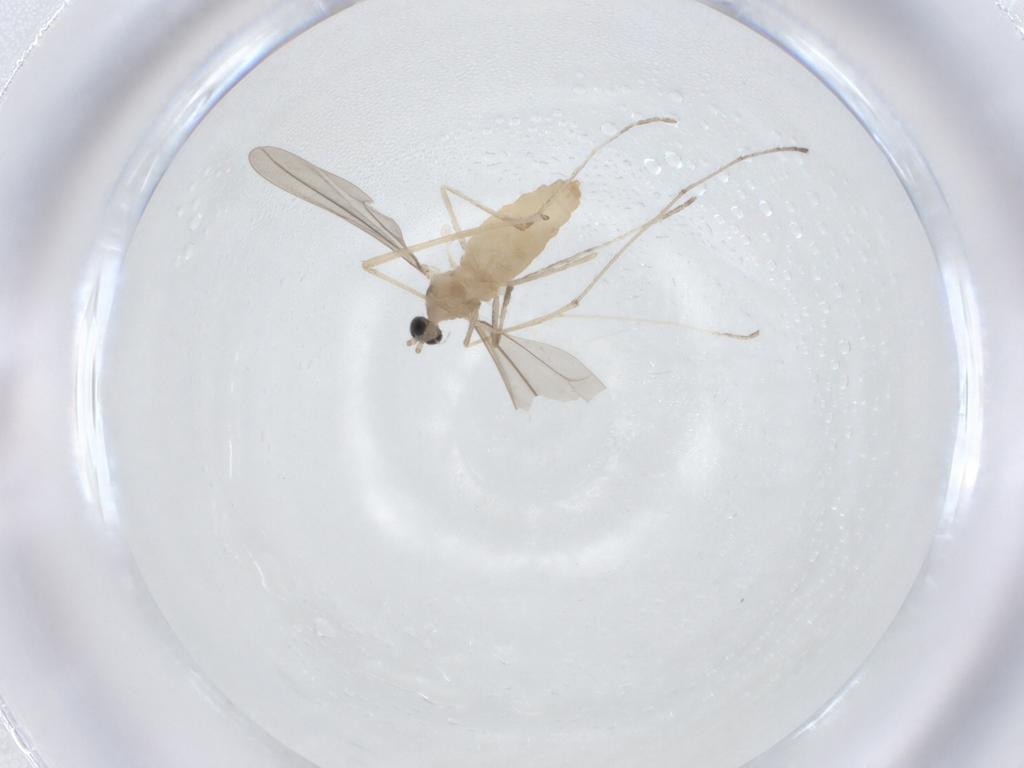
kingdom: Animalia
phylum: Arthropoda
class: Insecta
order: Diptera
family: Cecidomyiidae
